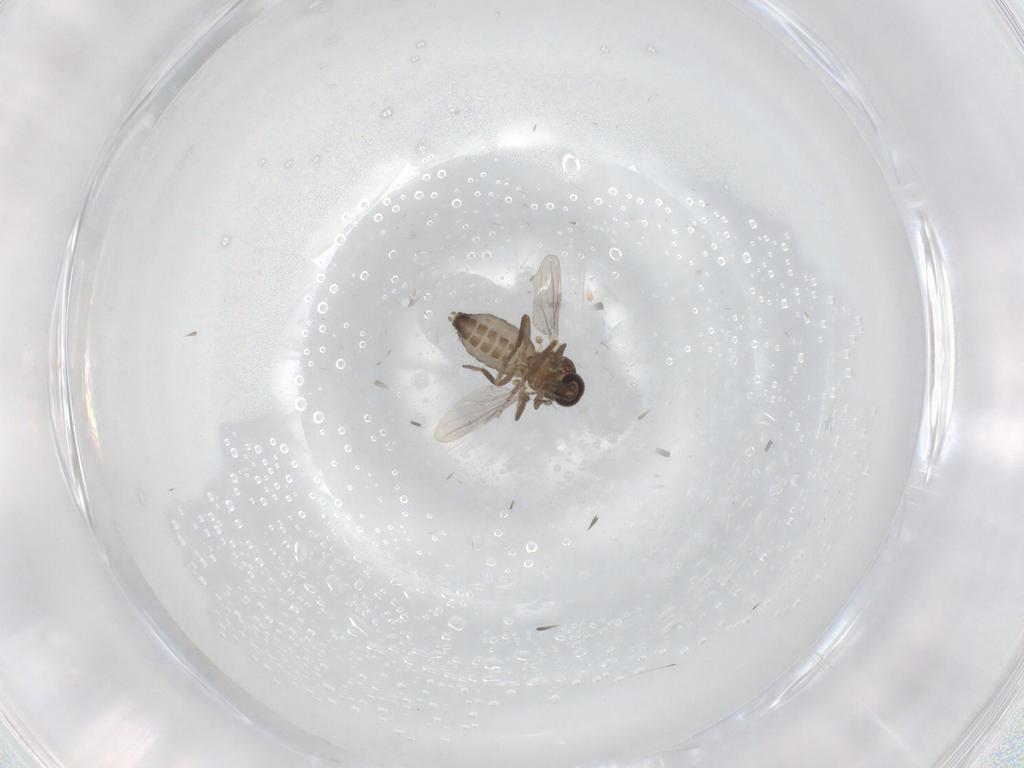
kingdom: Animalia
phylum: Arthropoda
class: Insecta
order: Diptera
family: Ceratopogonidae
